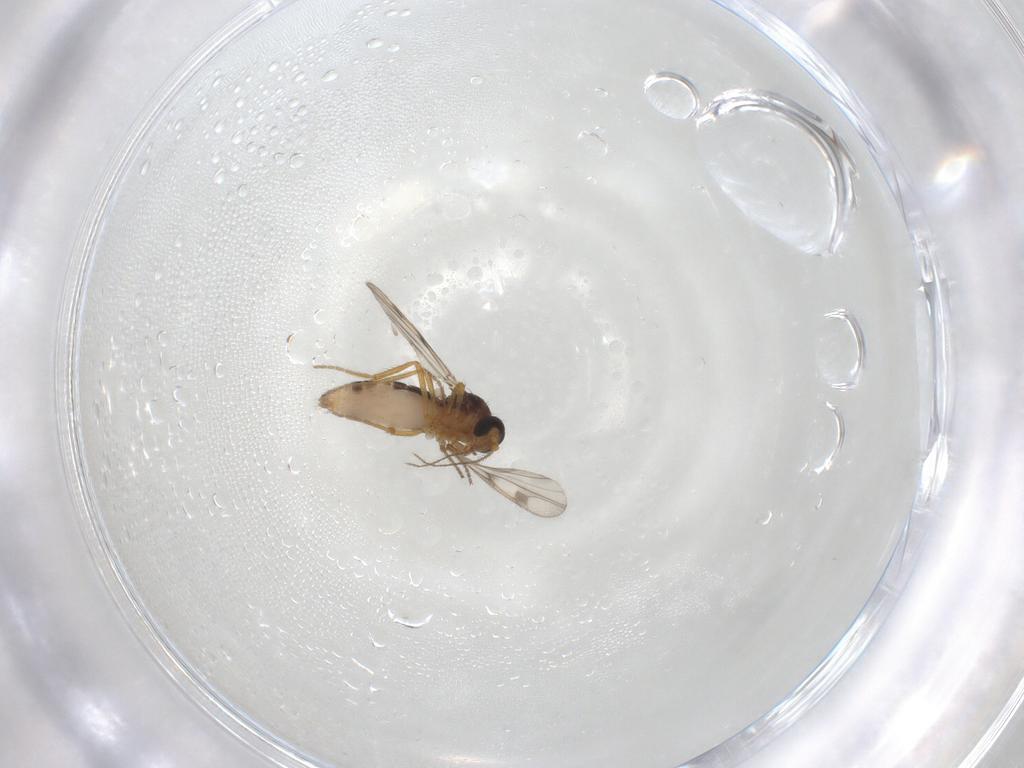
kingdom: Animalia
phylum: Arthropoda
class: Insecta
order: Diptera
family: Ceratopogonidae
